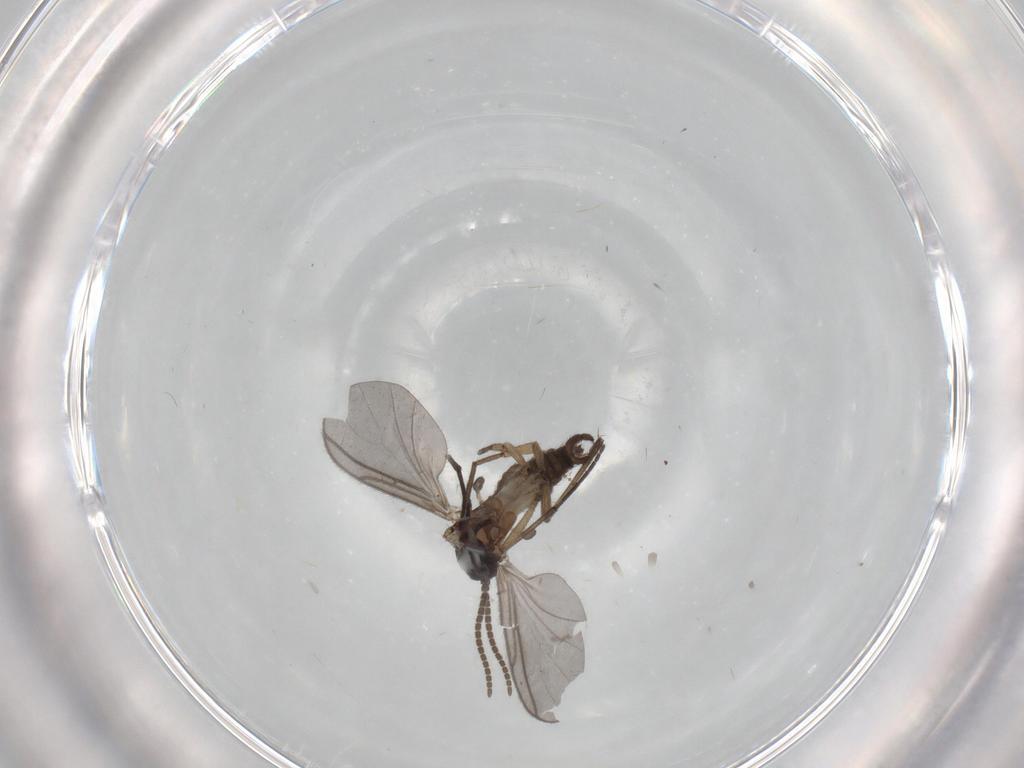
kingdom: Animalia
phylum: Arthropoda
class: Insecta
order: Diptera
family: Cecidomyiidae
